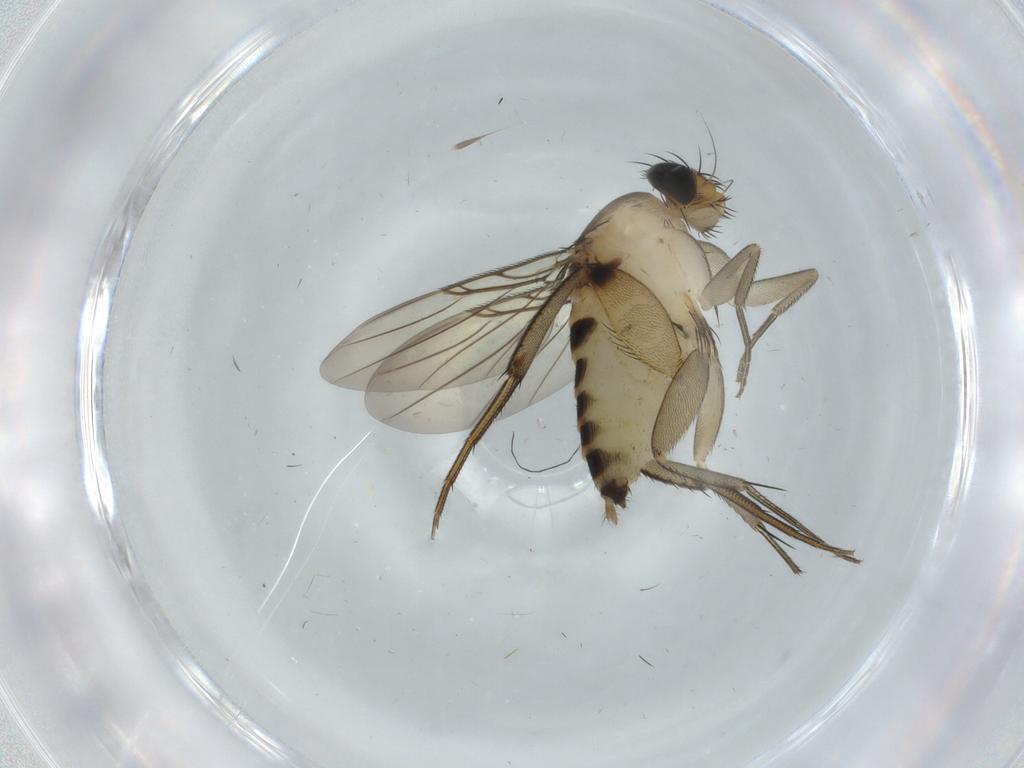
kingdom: Animalia
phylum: Arthropoda
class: Insecta
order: Diptera
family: Phoridae
